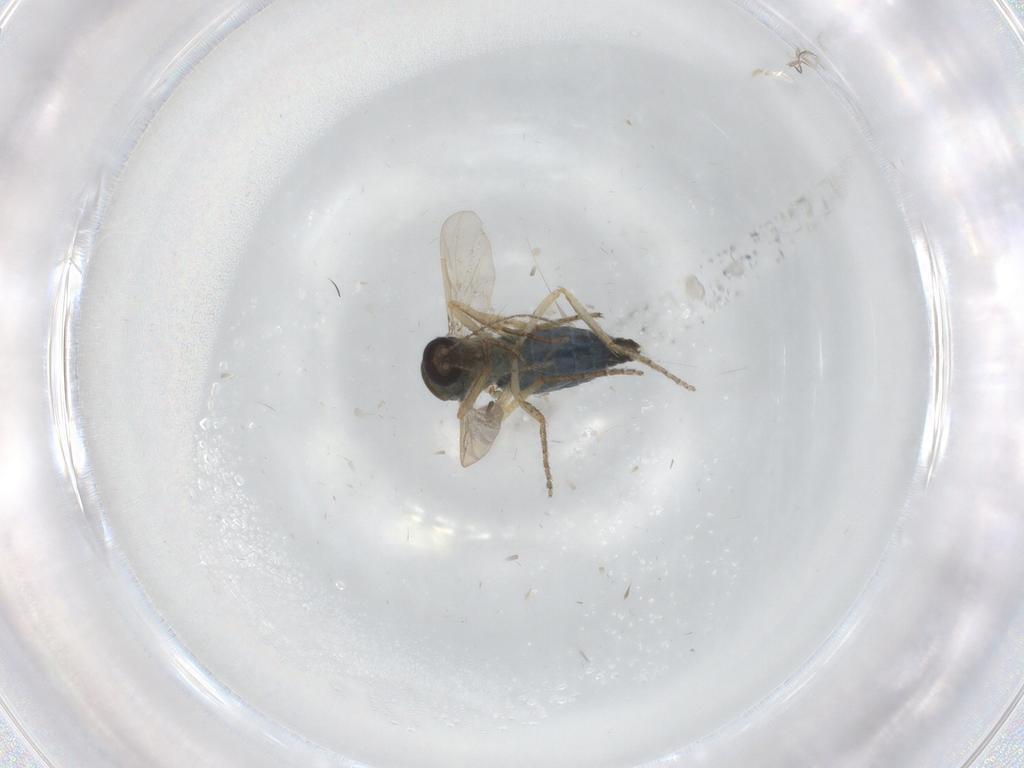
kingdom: Animalia
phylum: Arthropoda
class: Insecta
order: Diptera
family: Ceratopogonidae
